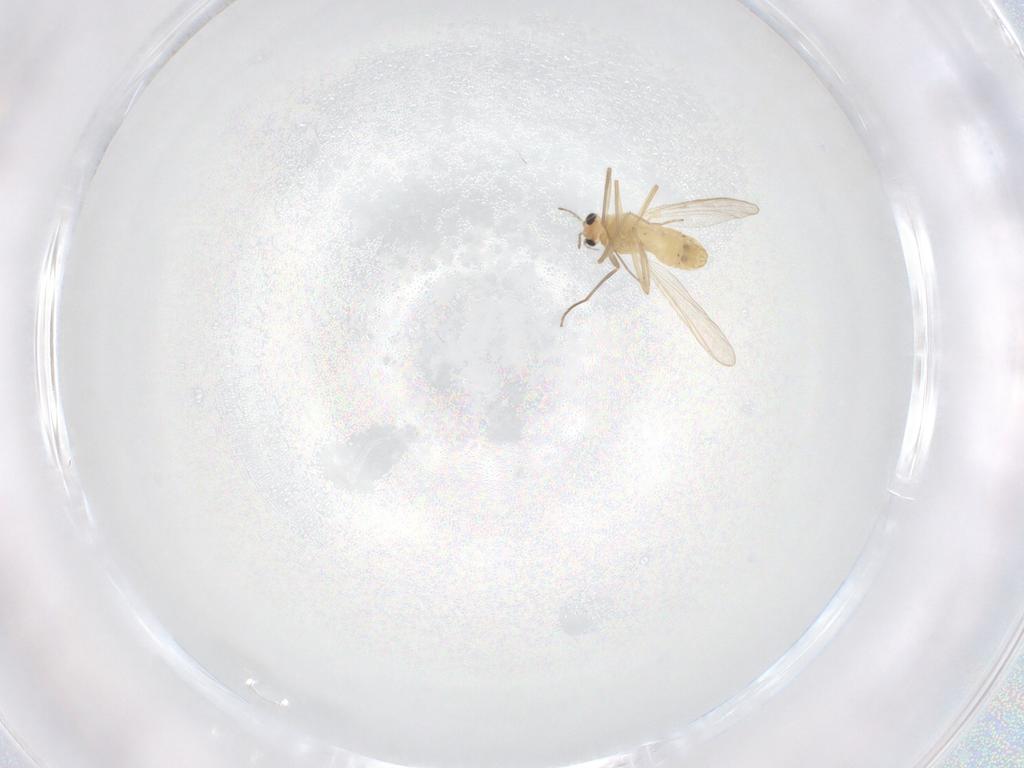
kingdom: Animalia
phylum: Arthropoda
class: Insecta
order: Diptera
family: Chironomidae
